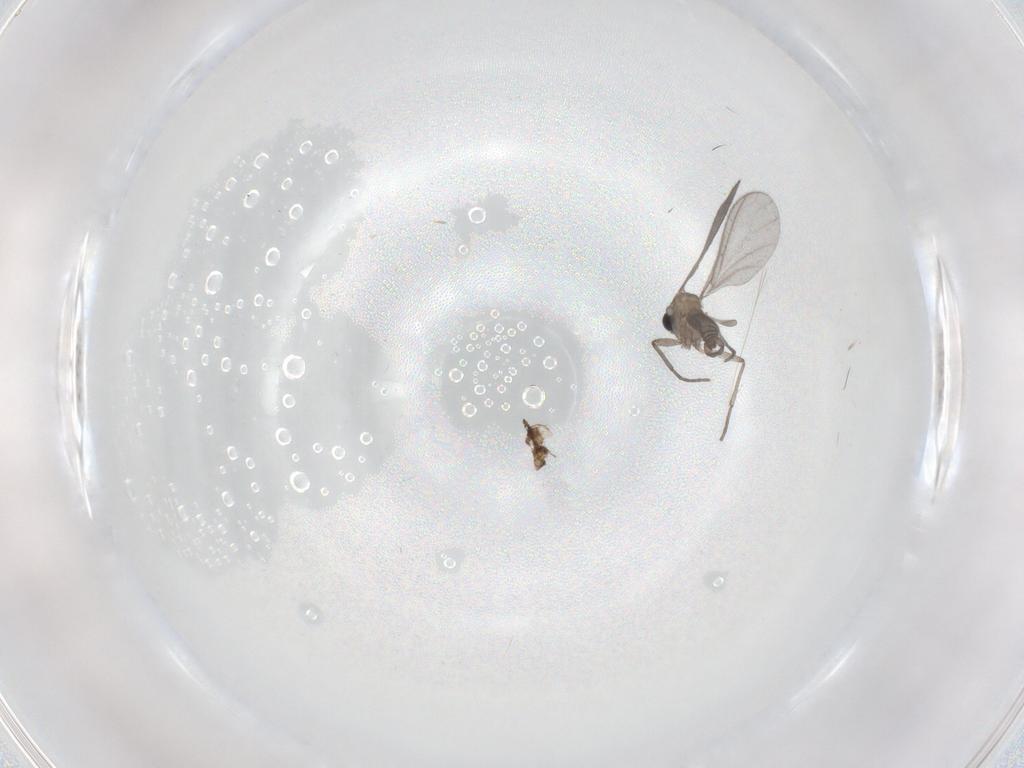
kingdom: Animalia
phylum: Arthropoda
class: Insecta
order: Diptera
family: Sciaridae
